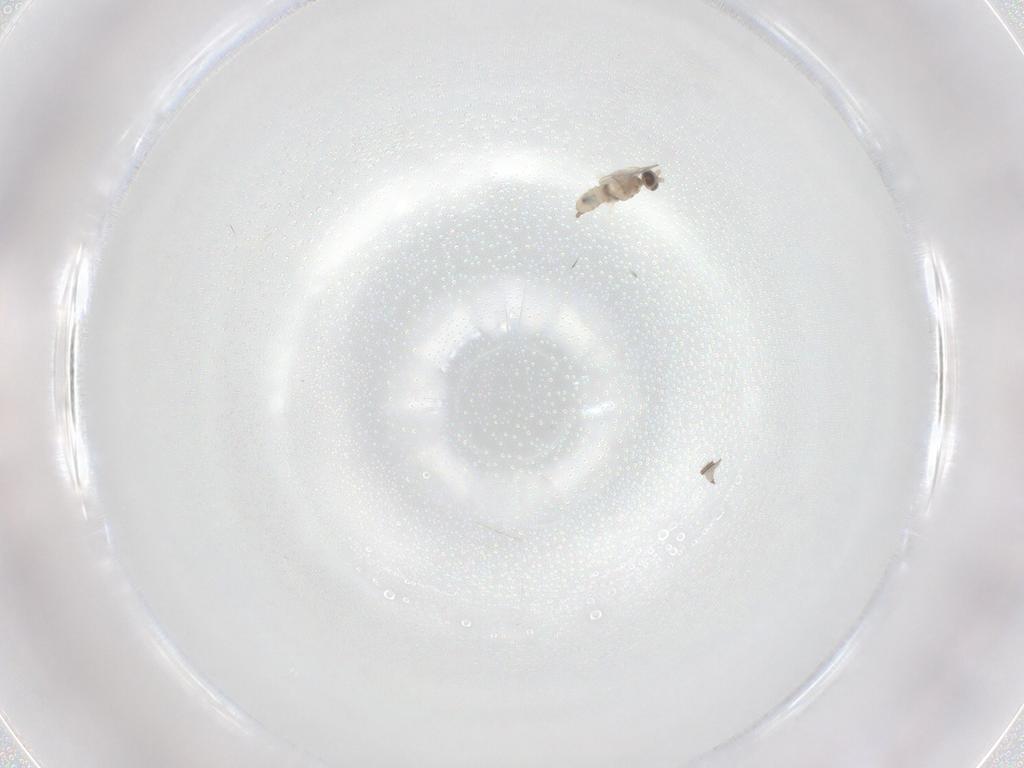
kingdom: Animalia
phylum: Arthropoda
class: Insecta
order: Diptera
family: Cecidomyiidae
